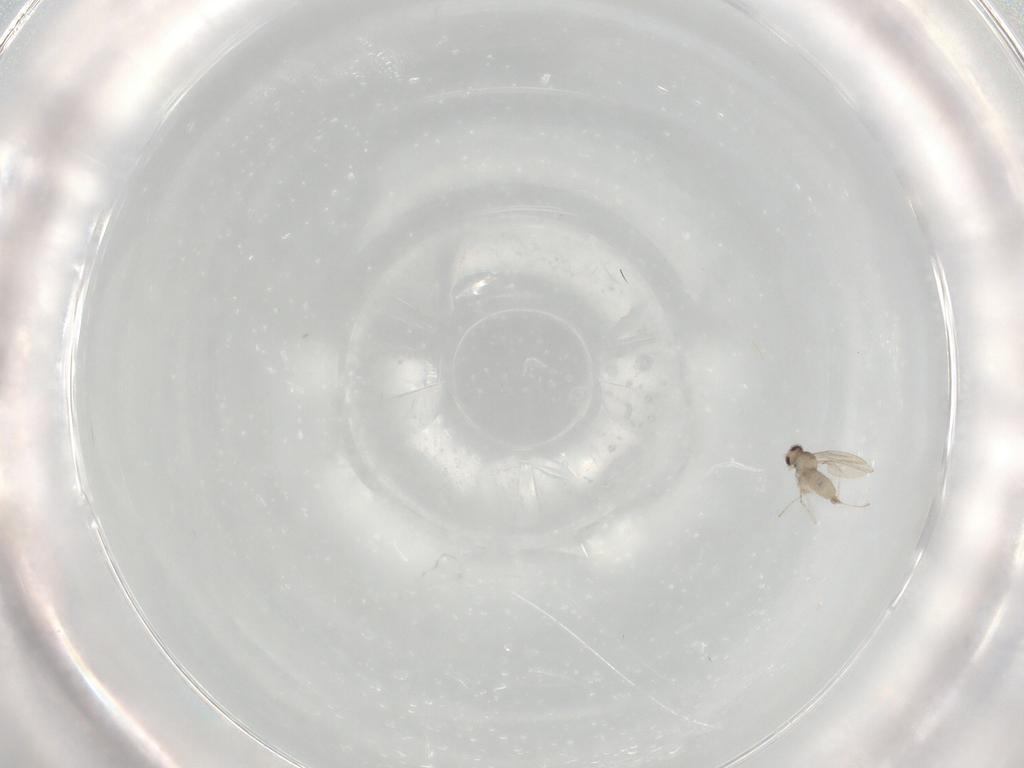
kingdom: Animalia
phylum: Arthropoda
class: Insecta
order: Diptera
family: Cecidomyiidae
